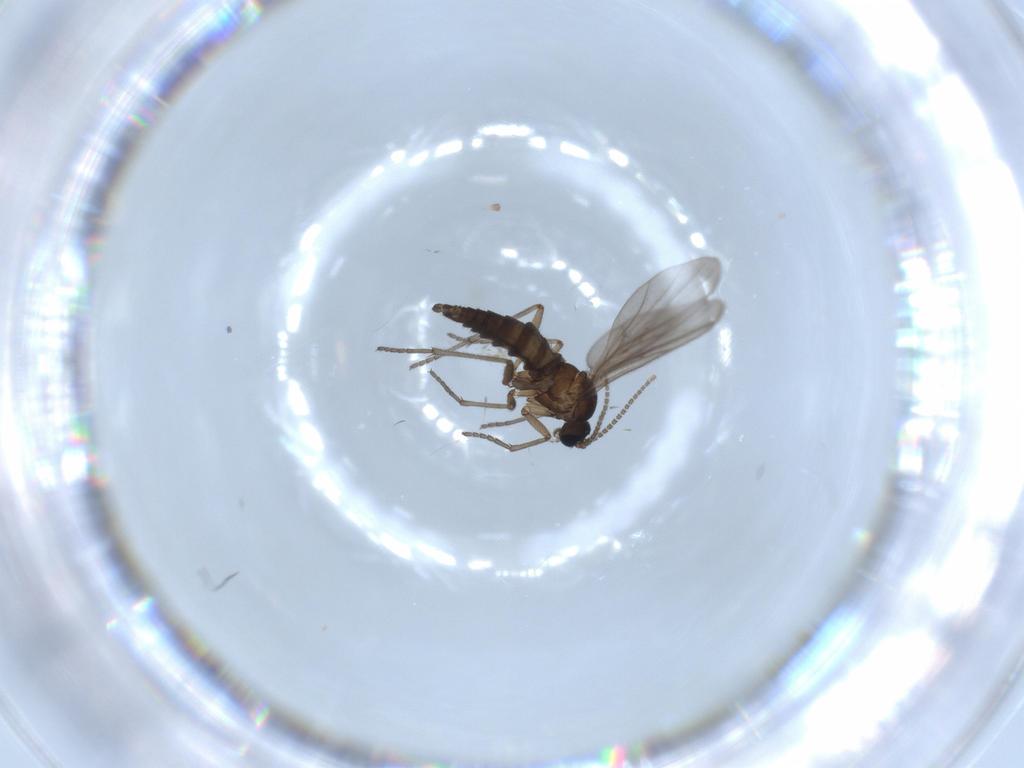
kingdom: Animalia
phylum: Arthropoda
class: Insecta
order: Diptera
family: Sciaridae
